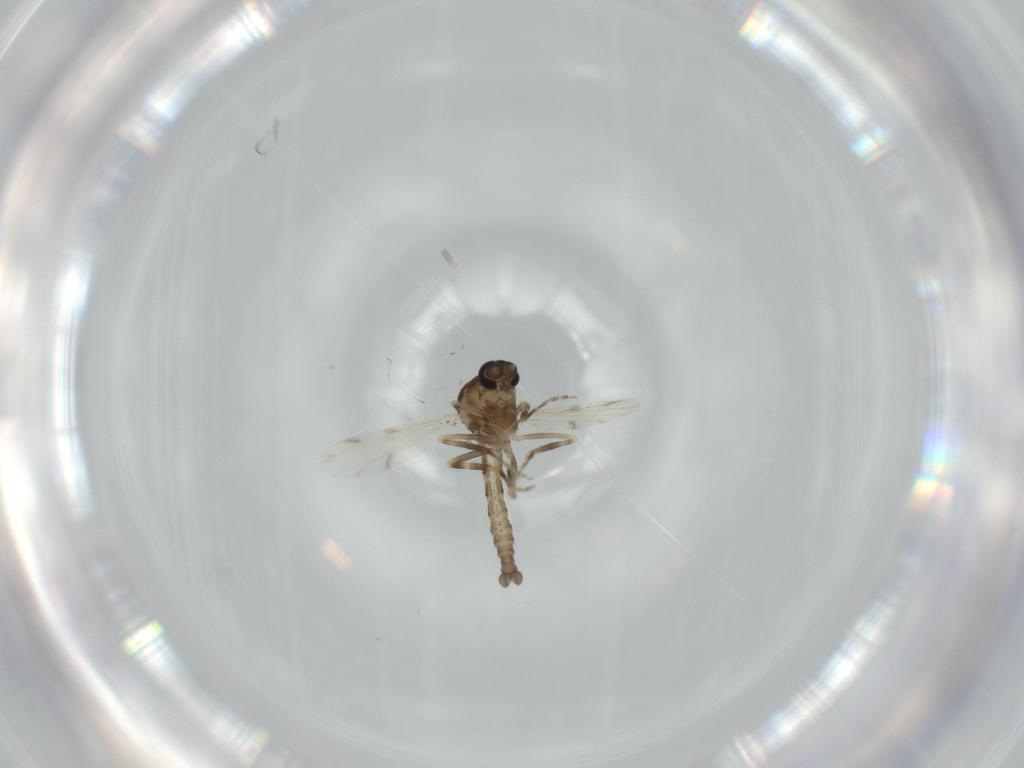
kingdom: Animalia
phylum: Arthropoda
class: Insecta
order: Diptera
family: Ceratopogonidae
